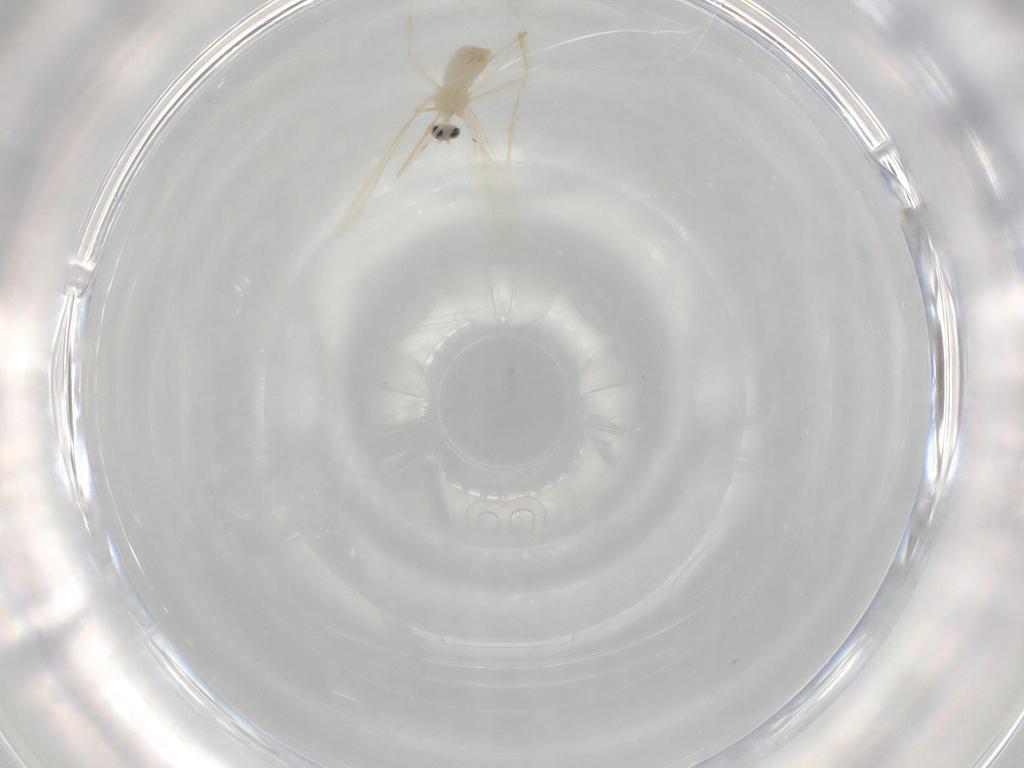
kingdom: Animalia
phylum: Arthropoda
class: Insecta
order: Diptera
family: Cecidomyiidae
